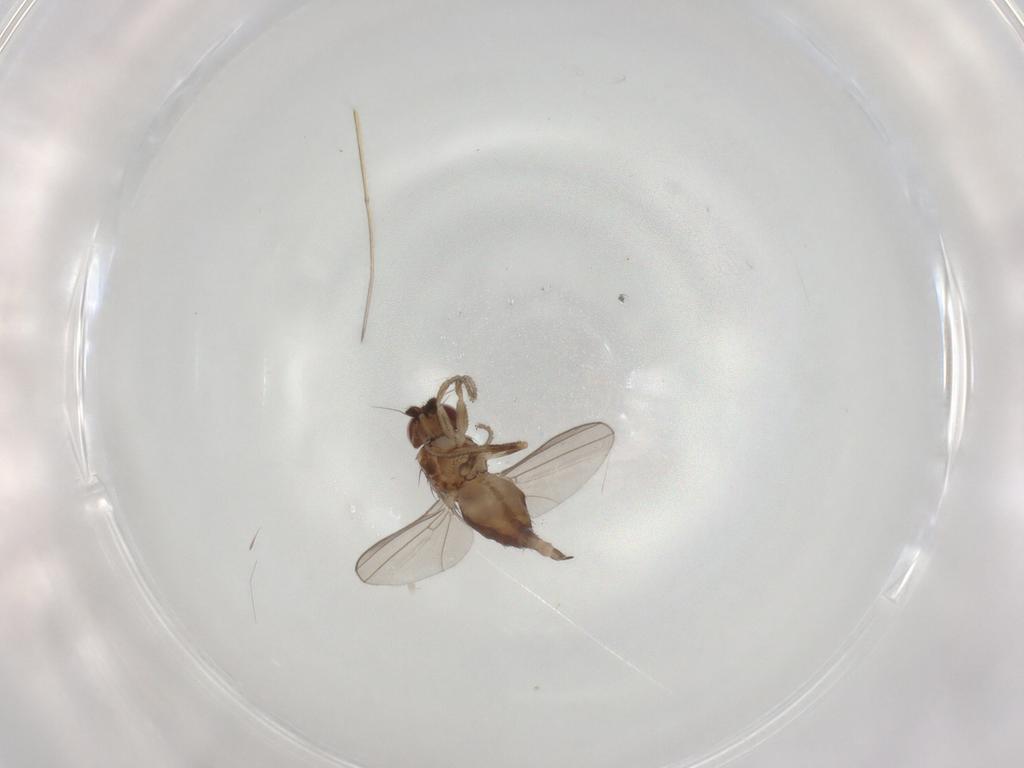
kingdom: Animalia
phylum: Arthropoda
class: Insecta
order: Diptera
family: Milichiidae
